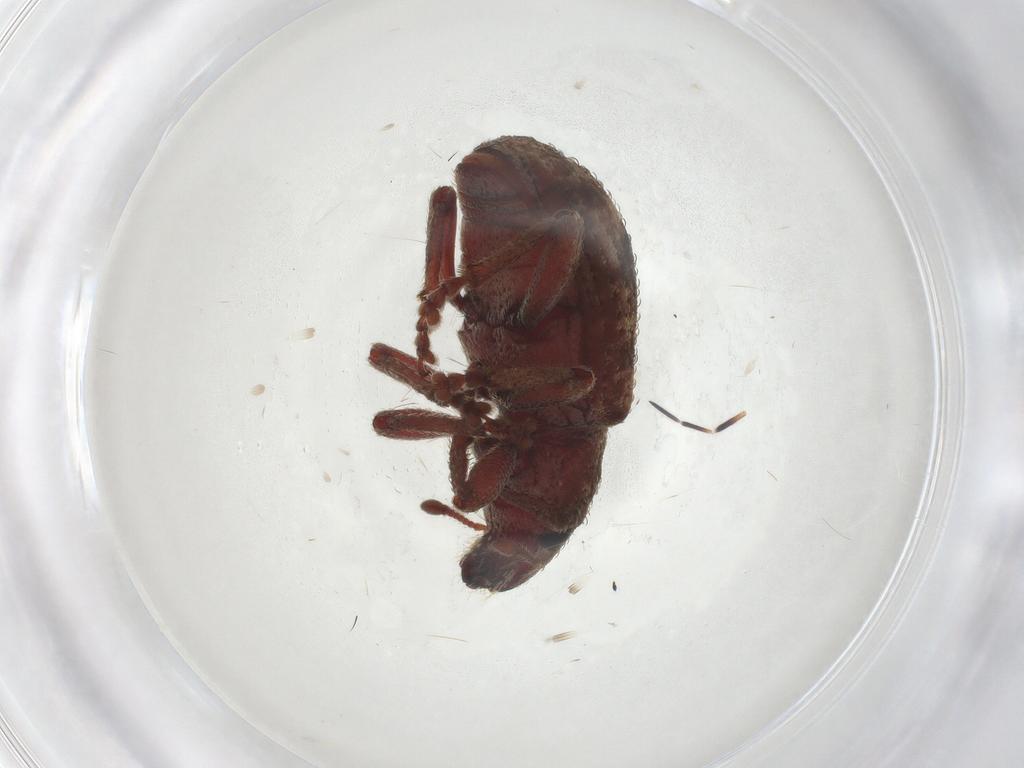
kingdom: Animalia
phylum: Arthropoda
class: Insecta
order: Coleoptera
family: Curculionidae
